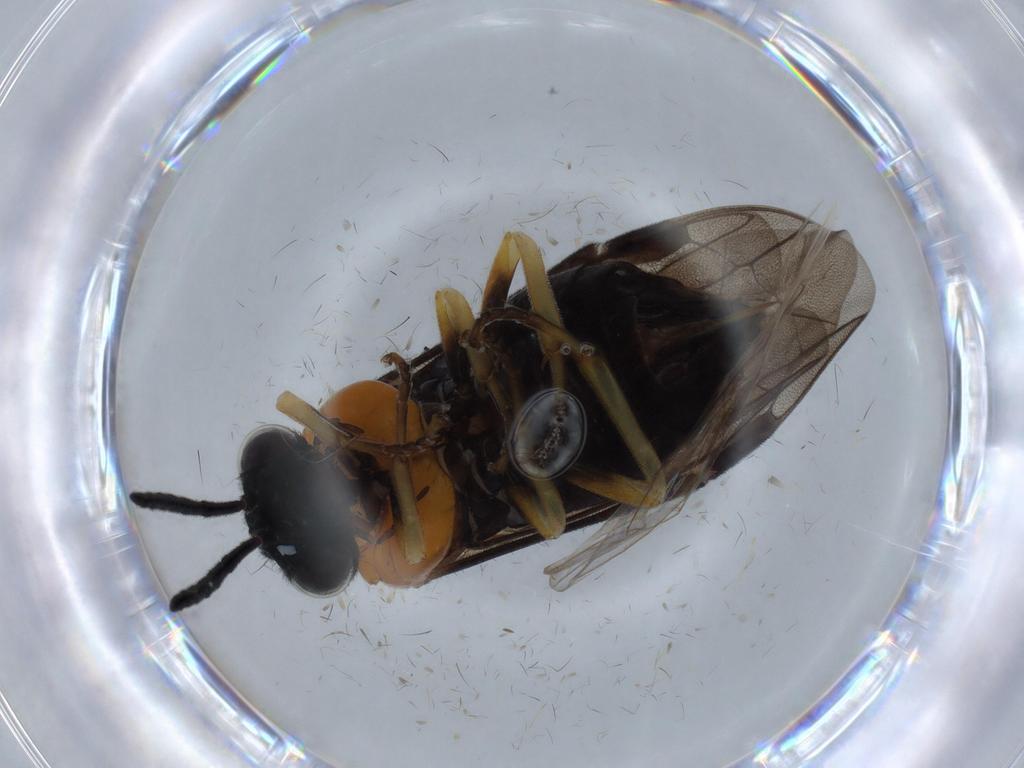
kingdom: Animalia
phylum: Arthropoda
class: Insecta
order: Hymenoptera
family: Tenthredinidae
